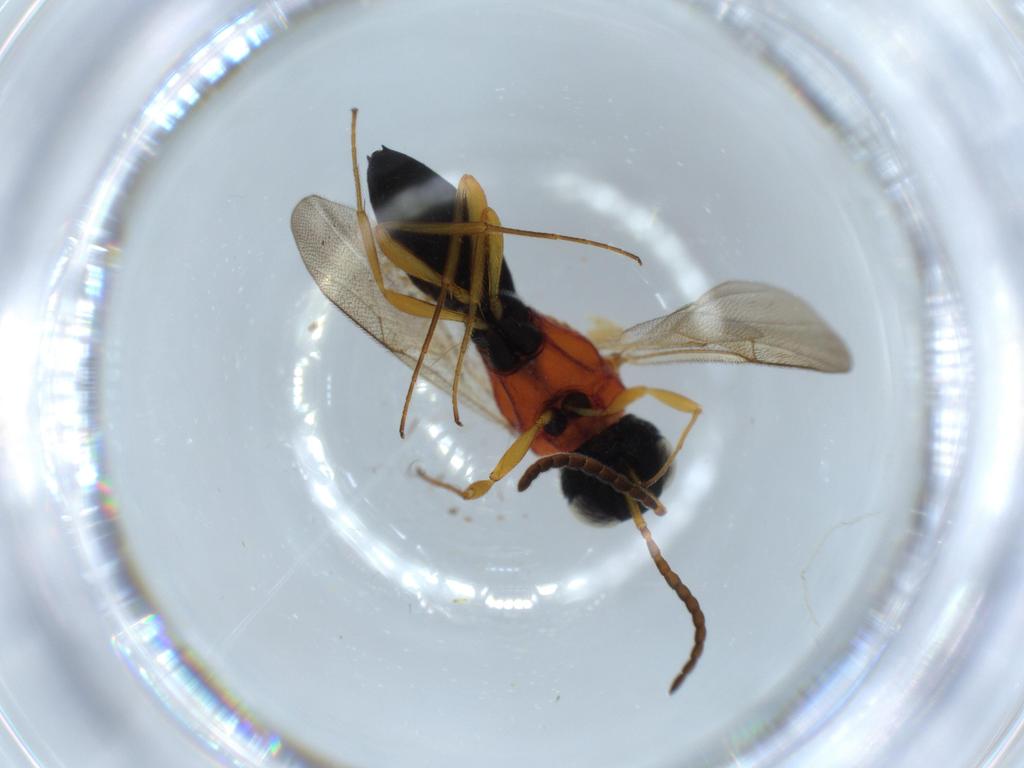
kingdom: Animalia
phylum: Arthropoda
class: Insecta
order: Hymenoptera
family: Scelionidae
